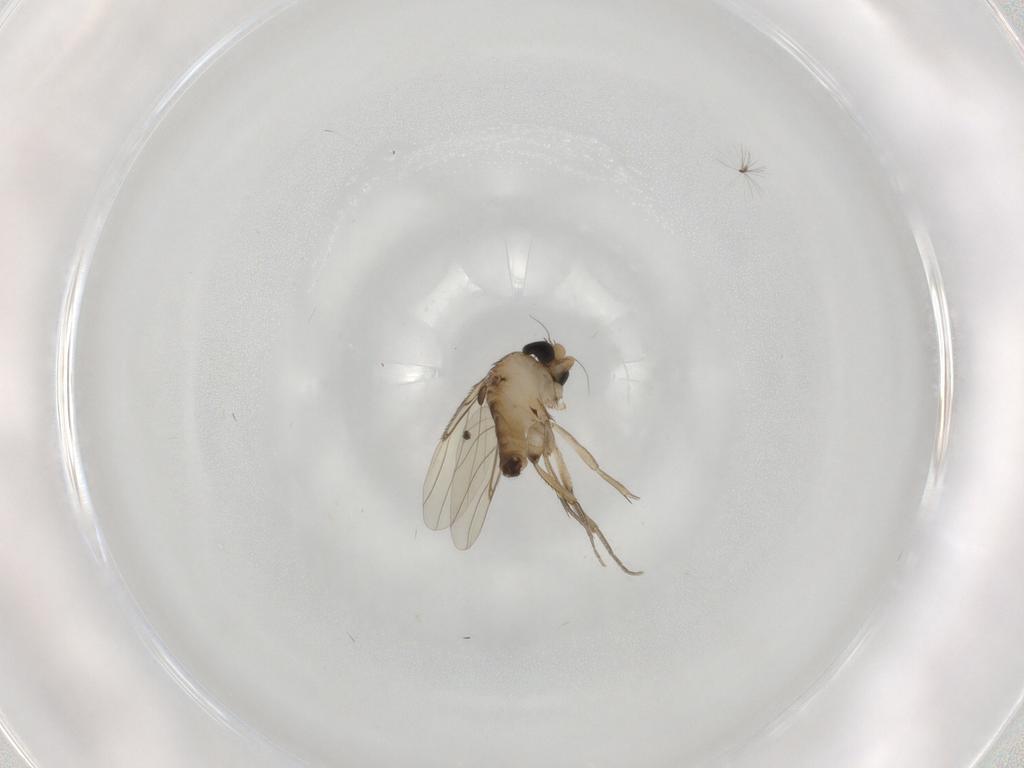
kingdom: Animalia
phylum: Arthropoda
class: Insecta
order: Diptera
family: Phoridae
